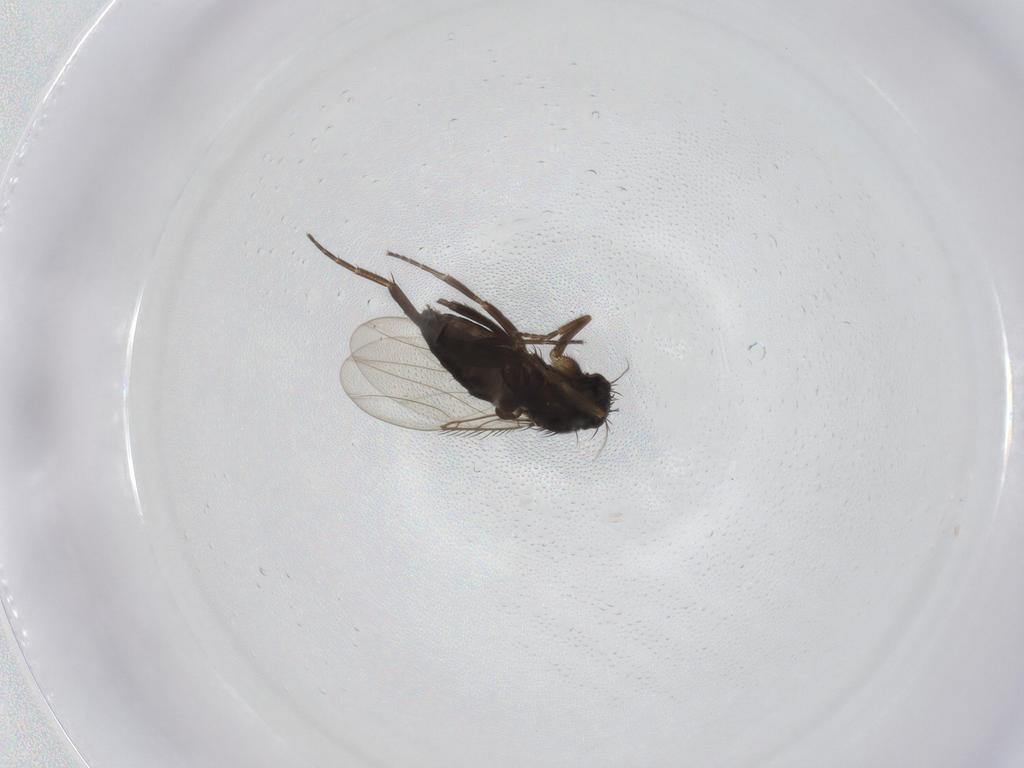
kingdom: Animalia
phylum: Arthropoda
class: Insecta
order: Diptera
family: Phoridae
